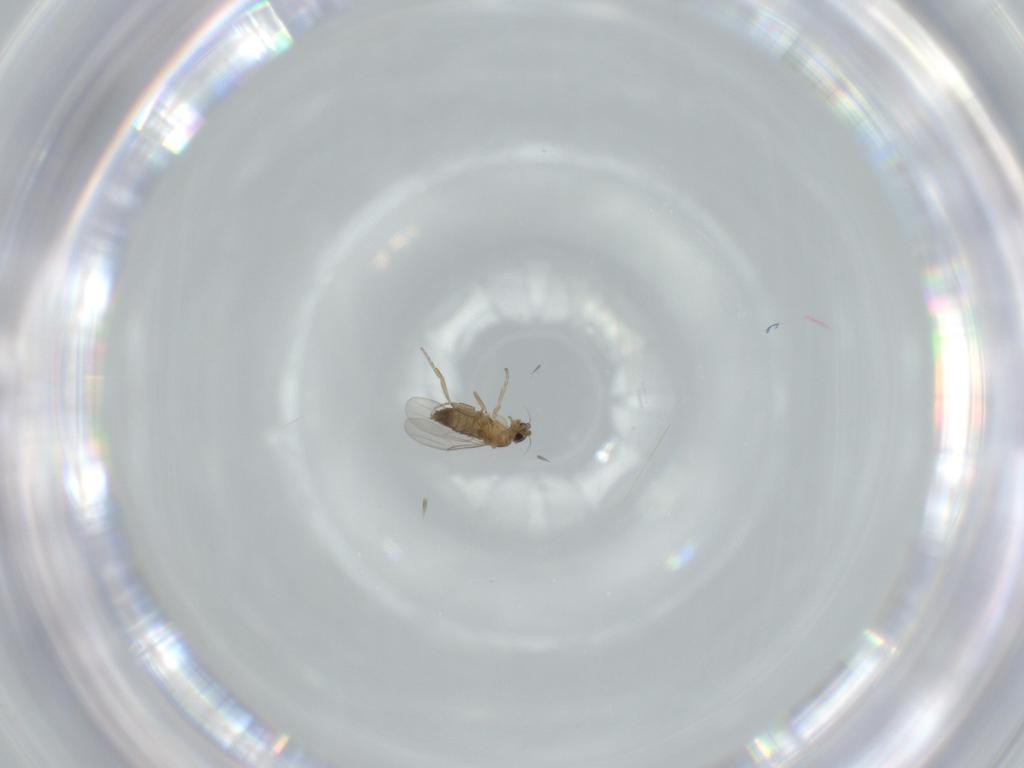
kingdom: Animalia
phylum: Arthropoda
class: Insecta
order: Diptera
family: Phoridae
